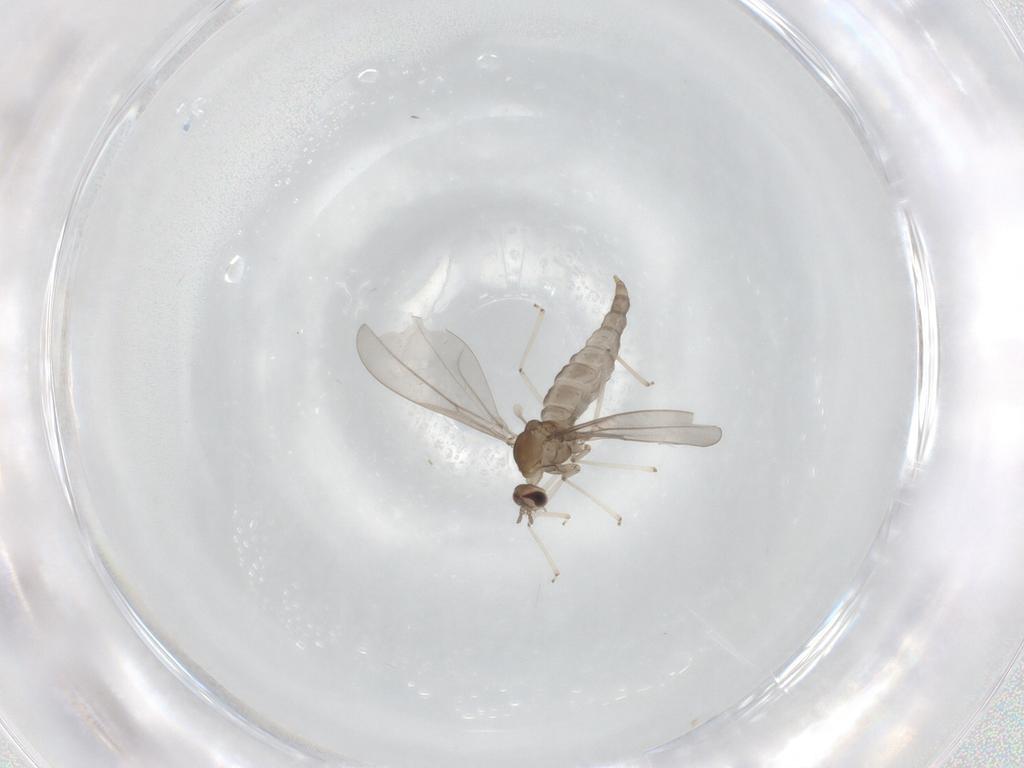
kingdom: Animalia
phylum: Arthropoda
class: Insecta
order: Diptera
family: Cecidomyiidae
